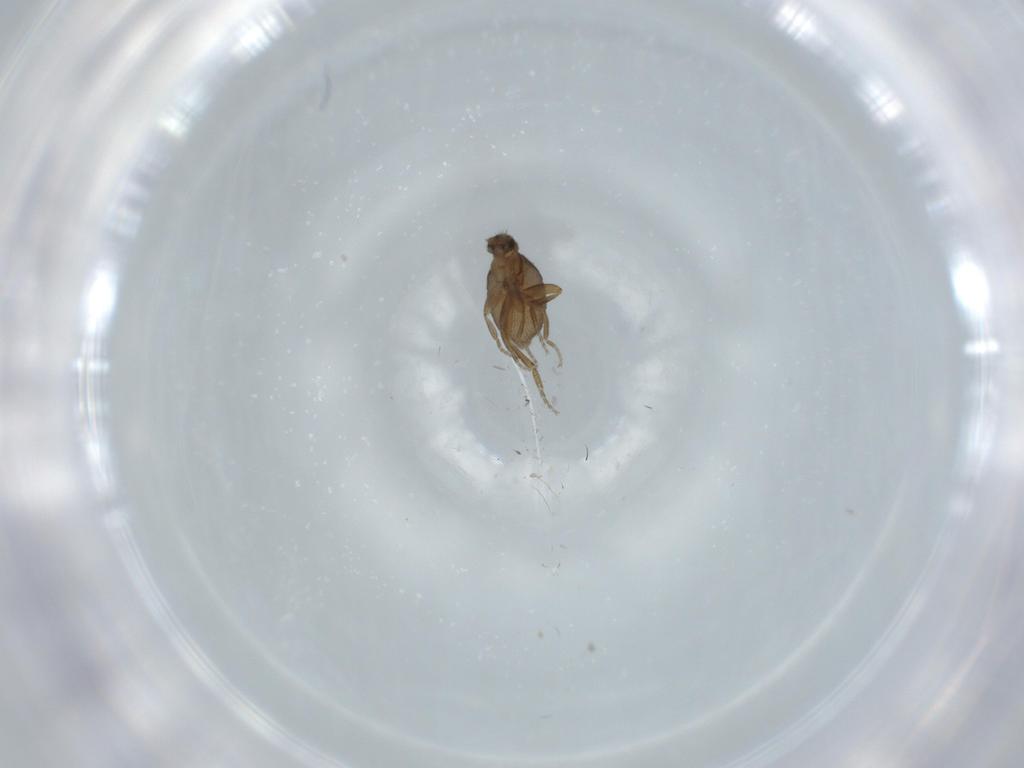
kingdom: Animalia
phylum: Arthropoda
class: Insecta
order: Diptera
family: Phoridae
